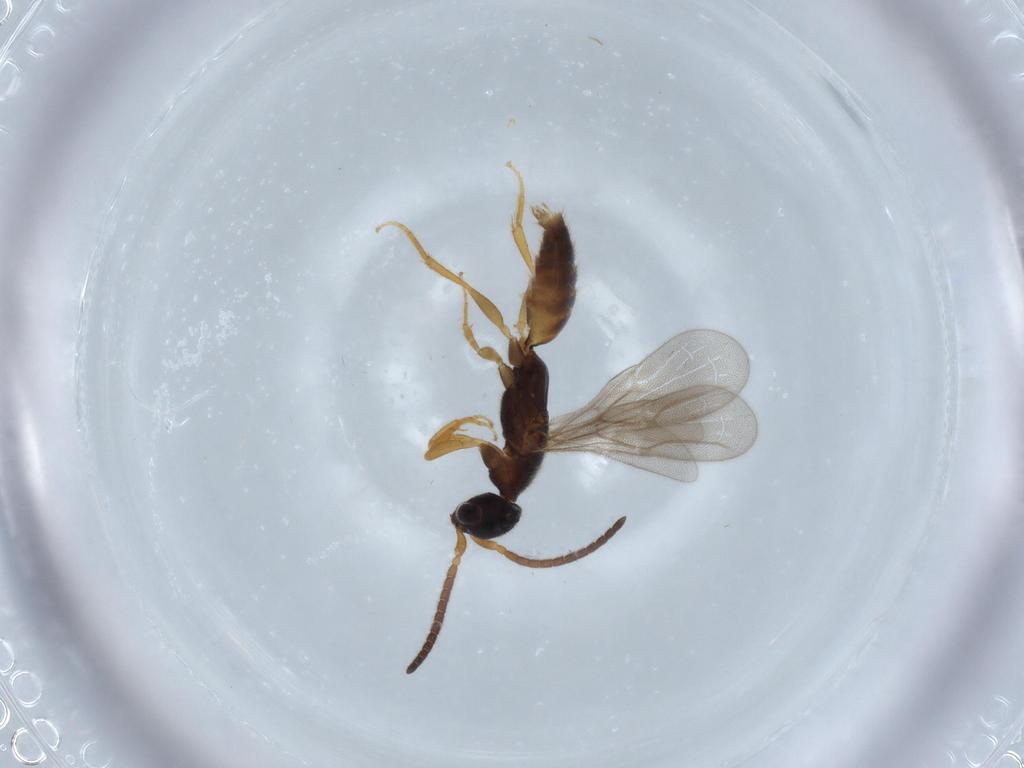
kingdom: Animalia
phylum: Arthropoda
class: Insecta
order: Hymenoptera
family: Bethylidae
